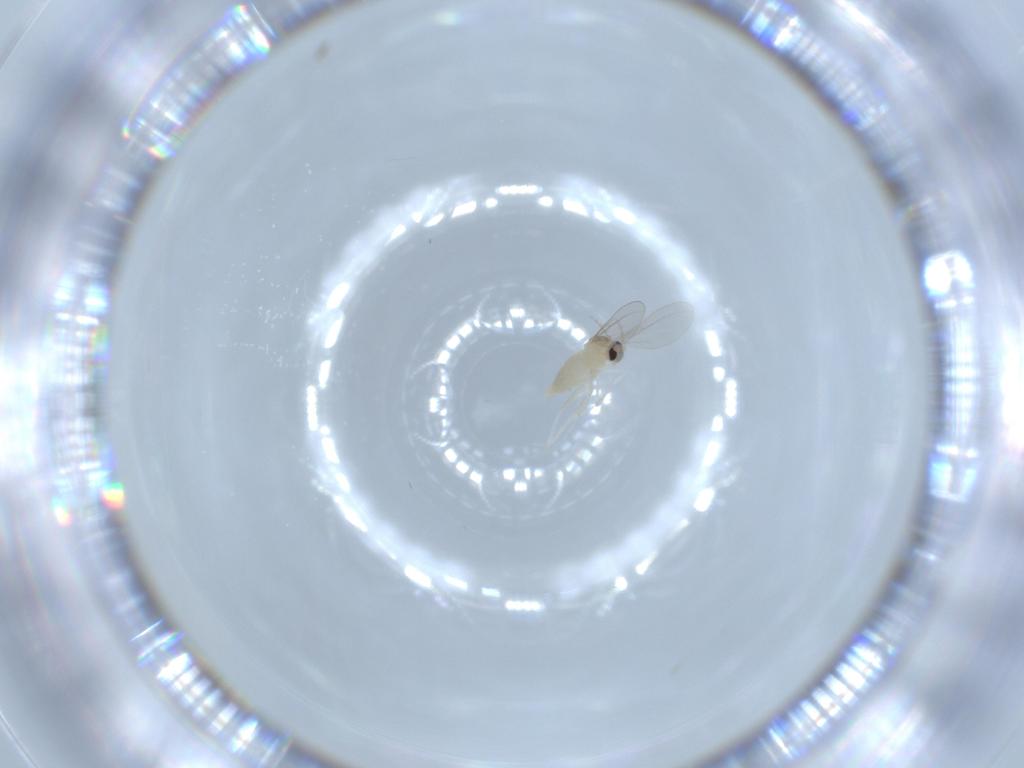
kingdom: Animalia
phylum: Arthropoda
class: Insecta
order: Diptera
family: Cecidomyiidae
